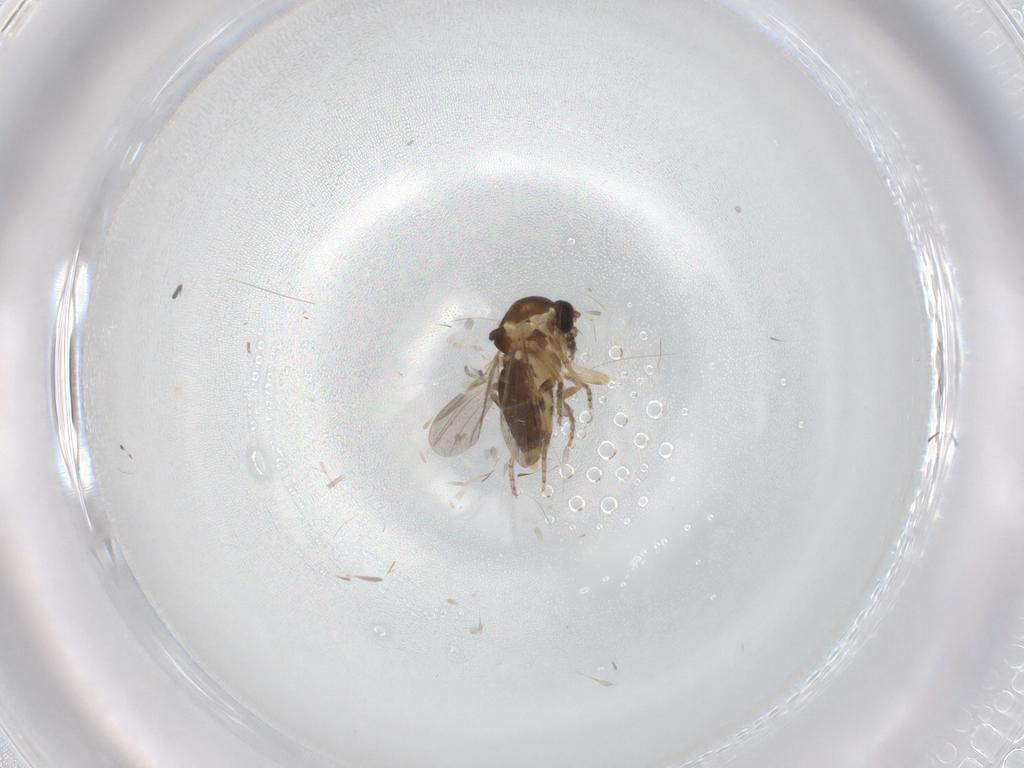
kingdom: Animalia
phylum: Arthropoda
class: Insecta
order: Diptera
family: Ceratopogonidae
